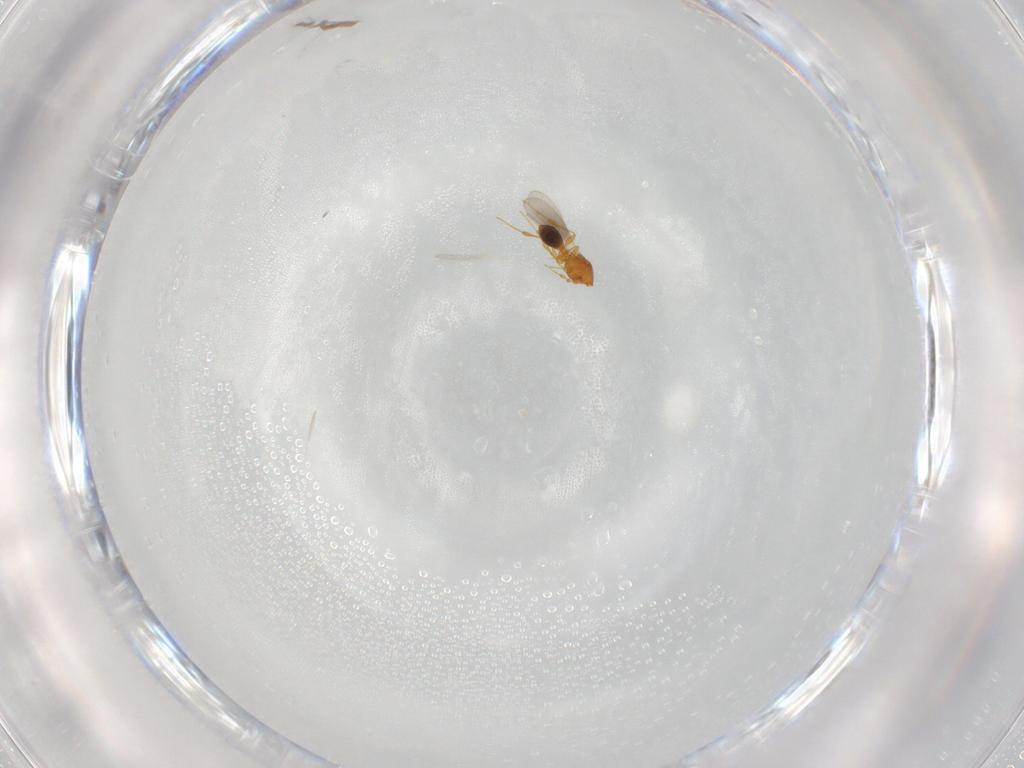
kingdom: Animalia
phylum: Arthropoda
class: Insecta
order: Hymenoptera
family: Platygastridae
